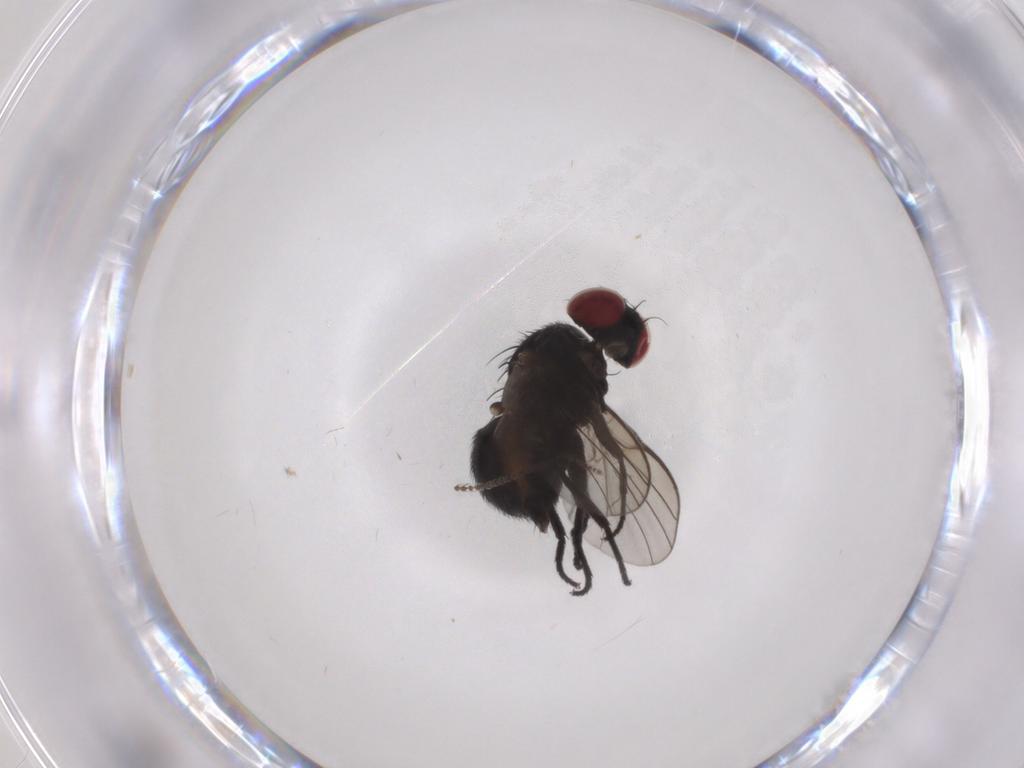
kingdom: Animalia
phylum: Arthropoda
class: Insecta
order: Diptera
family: Agromyzidae
